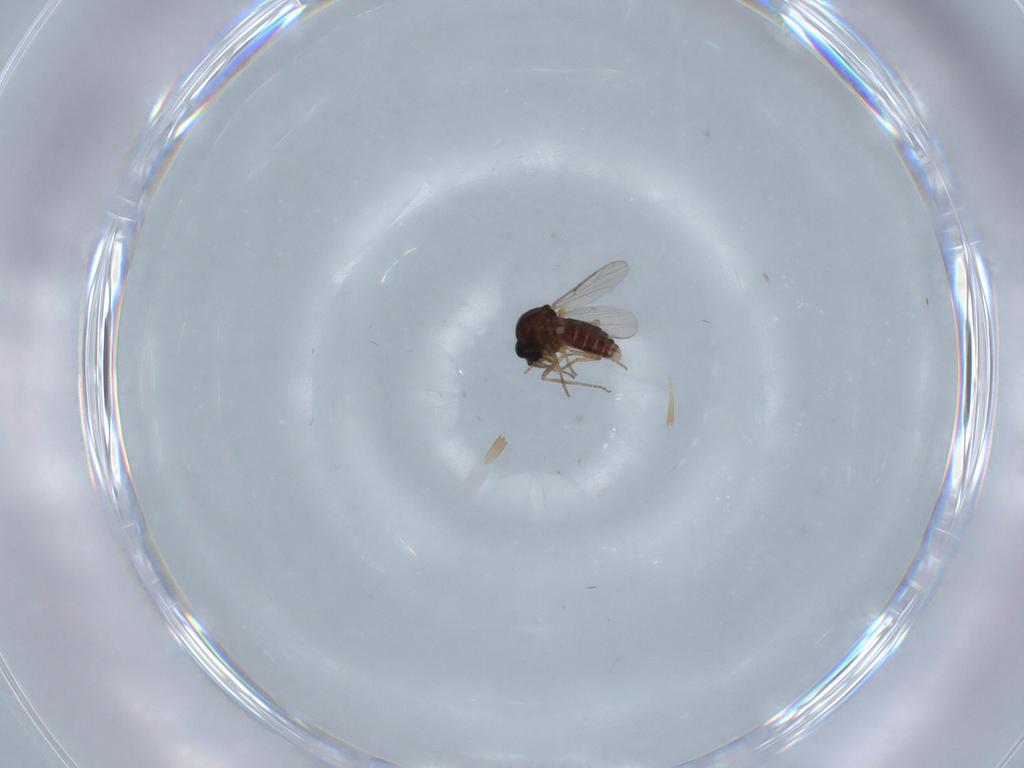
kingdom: Animalia
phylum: Arthropoda
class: Insecta
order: Diptera
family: Ceratopogonidae
